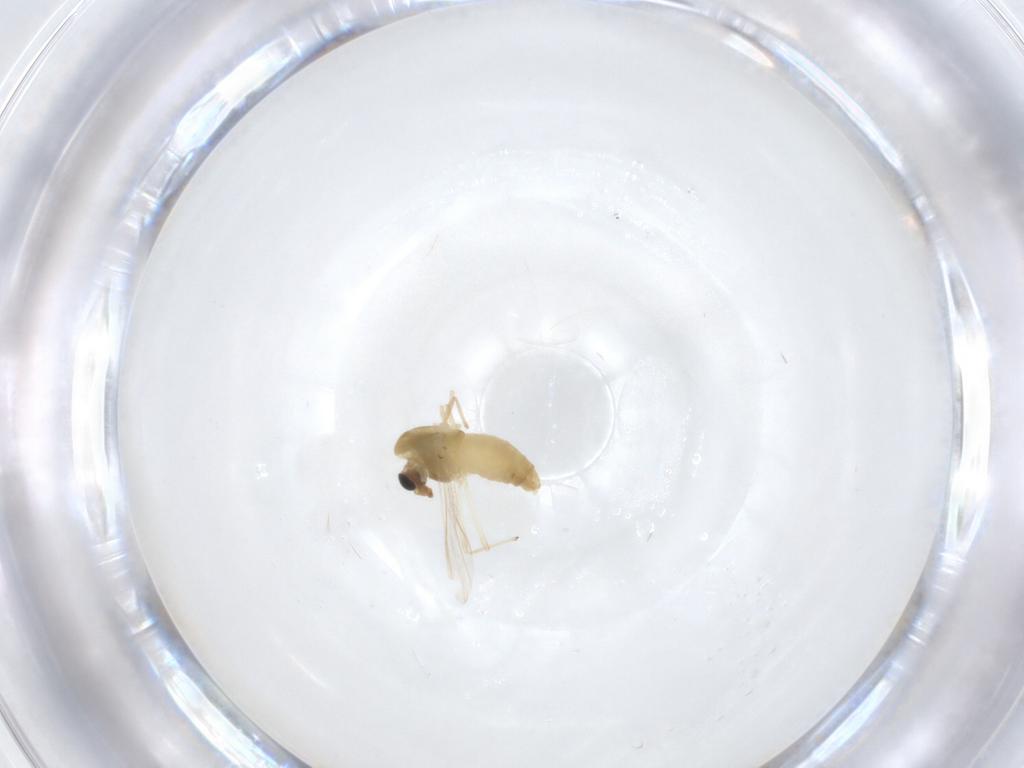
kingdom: Animalia
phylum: Arthropoda
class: Insecta
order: Diptera
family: Chironomidae
